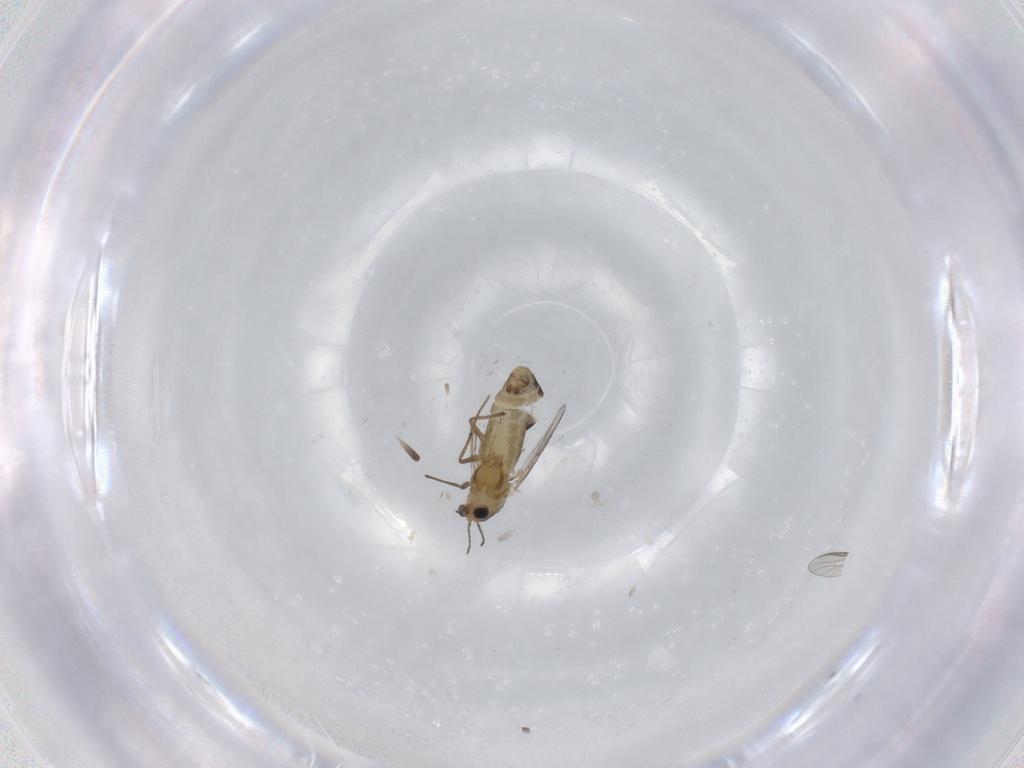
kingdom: Animalia
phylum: Arthropoda
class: Insecta
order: Diptera
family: Chironomidae
